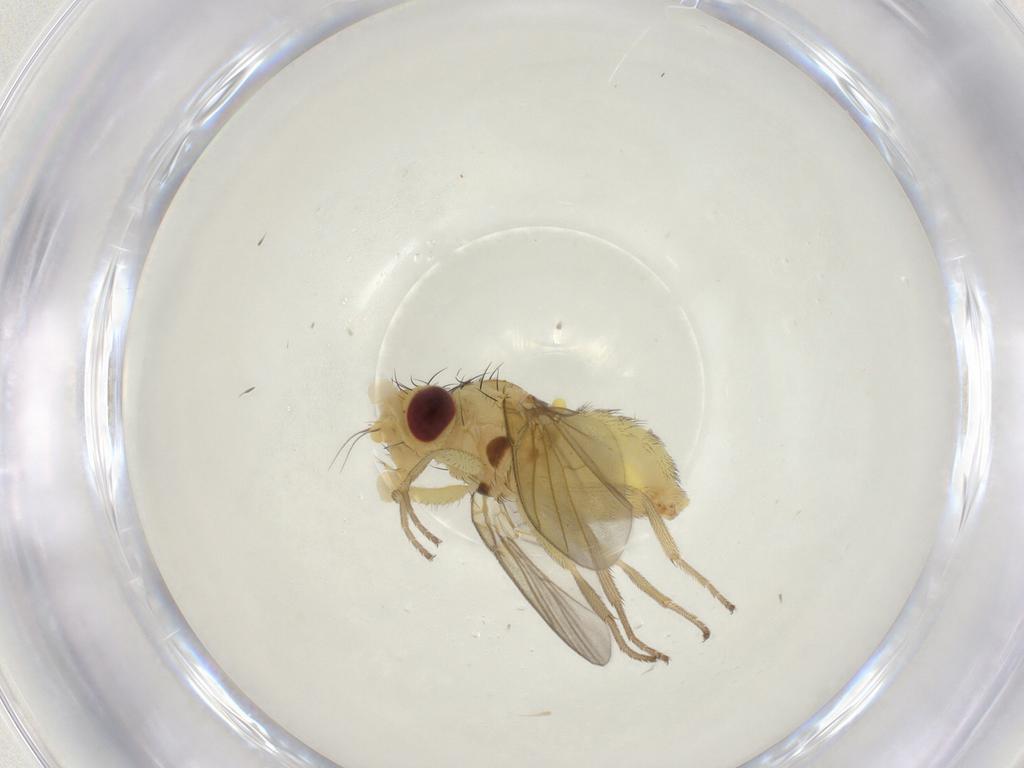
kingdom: Animalia
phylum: Arthropoda
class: Insecta
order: Diptera
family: Agromyzidae
